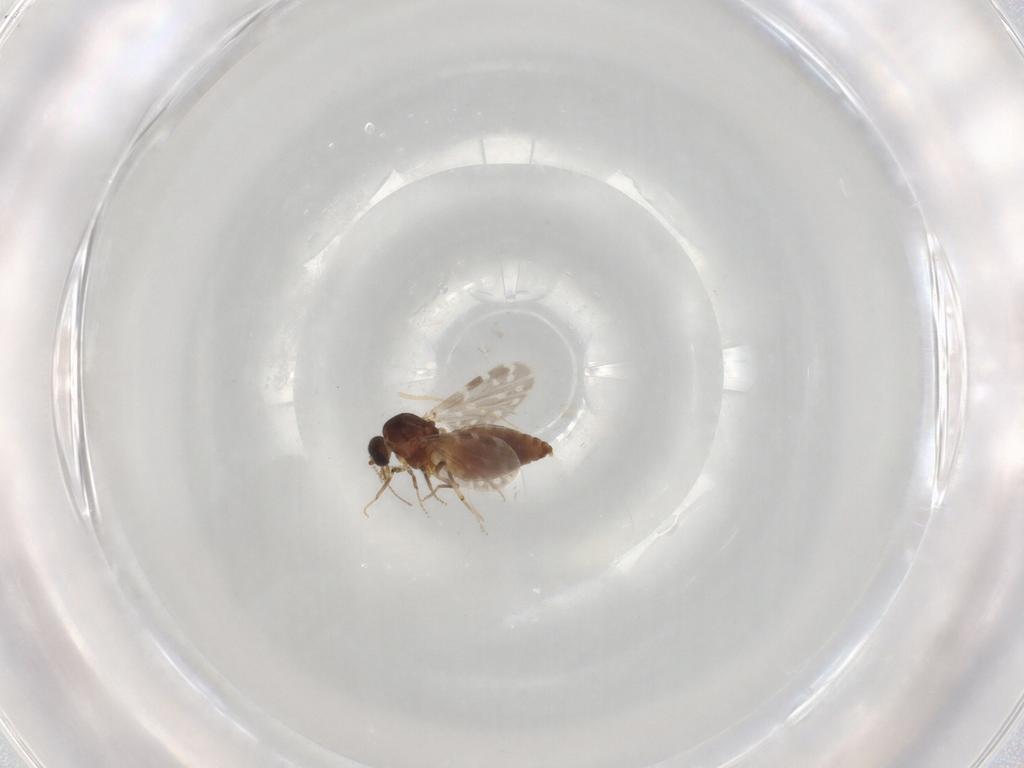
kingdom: Animalia
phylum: Arthropoda
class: Insecta
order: Diptera
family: Ceratopogonidae
